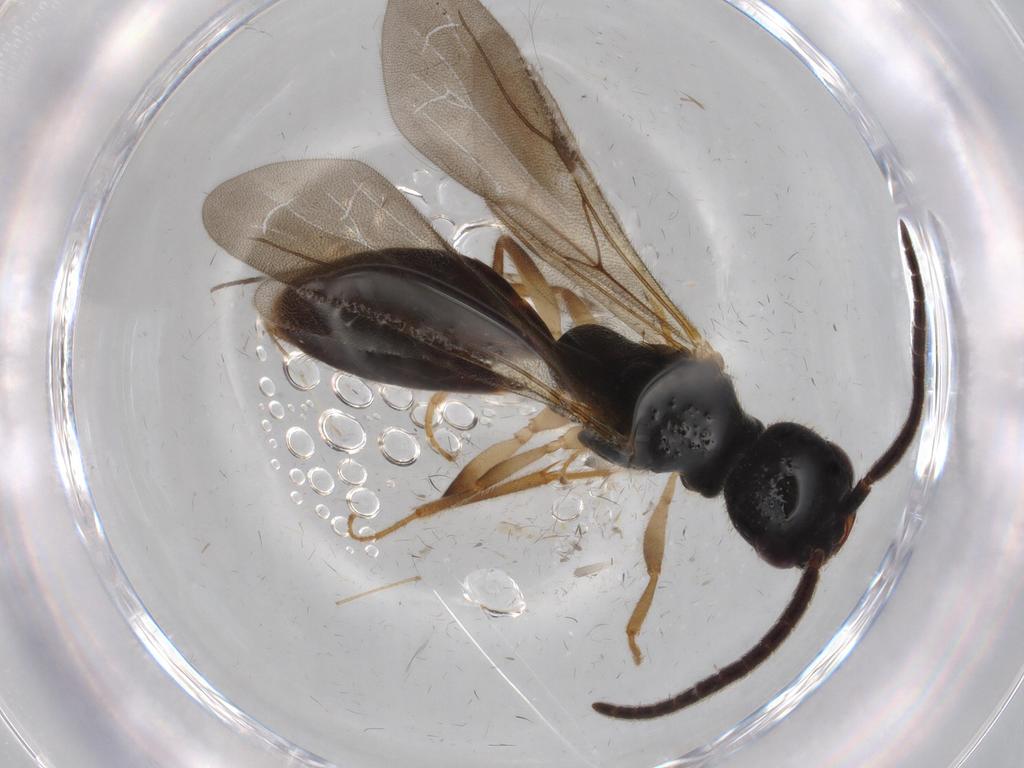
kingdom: Animalia
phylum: Arthropoda
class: Insecta
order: Hymenoptera
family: Bethylidae
